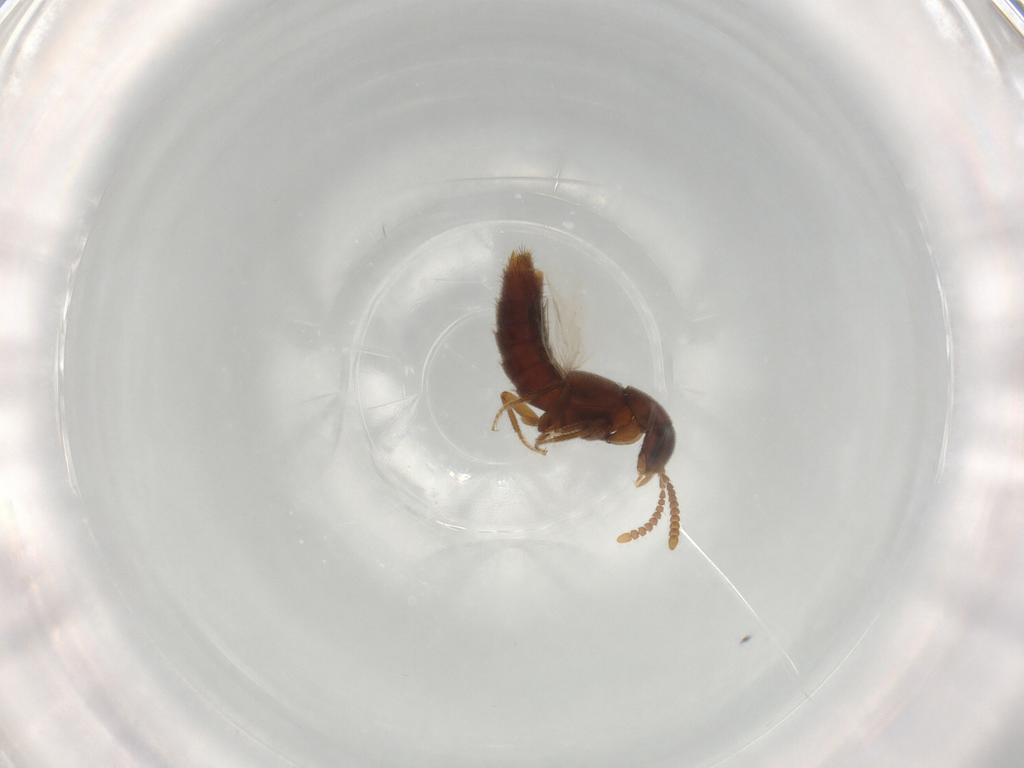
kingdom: Animalia
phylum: Arthropoda
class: Insecta
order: Coleoptera
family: Staphylinidae
